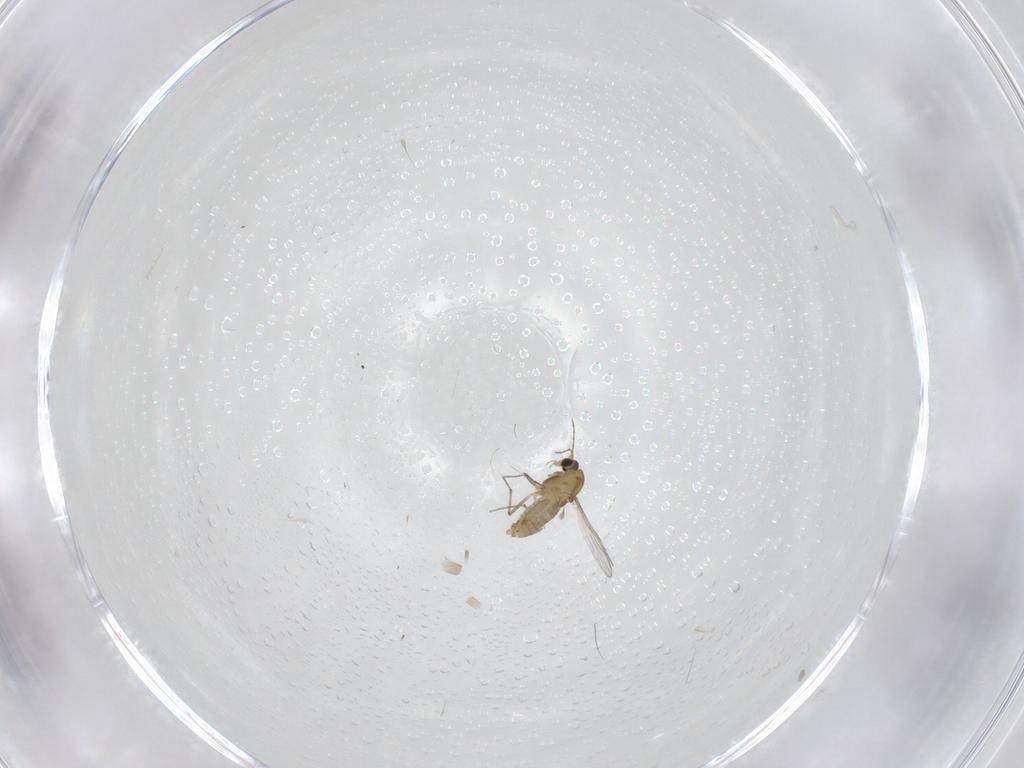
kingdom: Animalia
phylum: Arthropoda
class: Insecta
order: Diptera
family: Chironomidae
